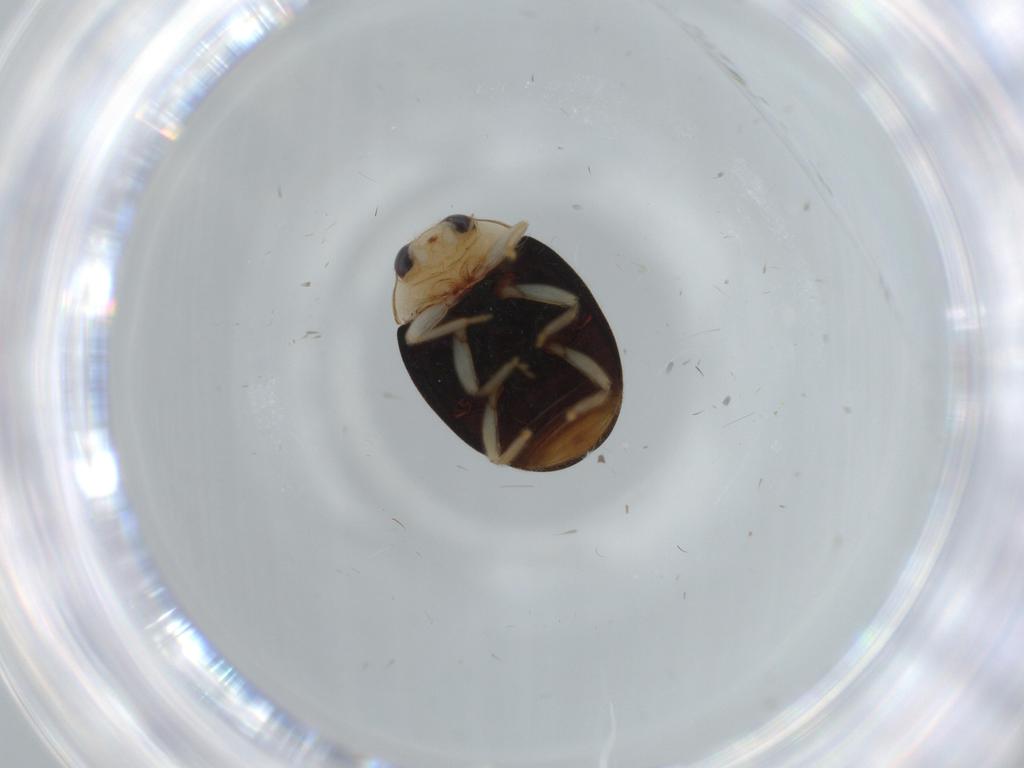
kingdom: Animalia
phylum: Arthropoda
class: Insecta
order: Coleoptera
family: Coccinellidae
